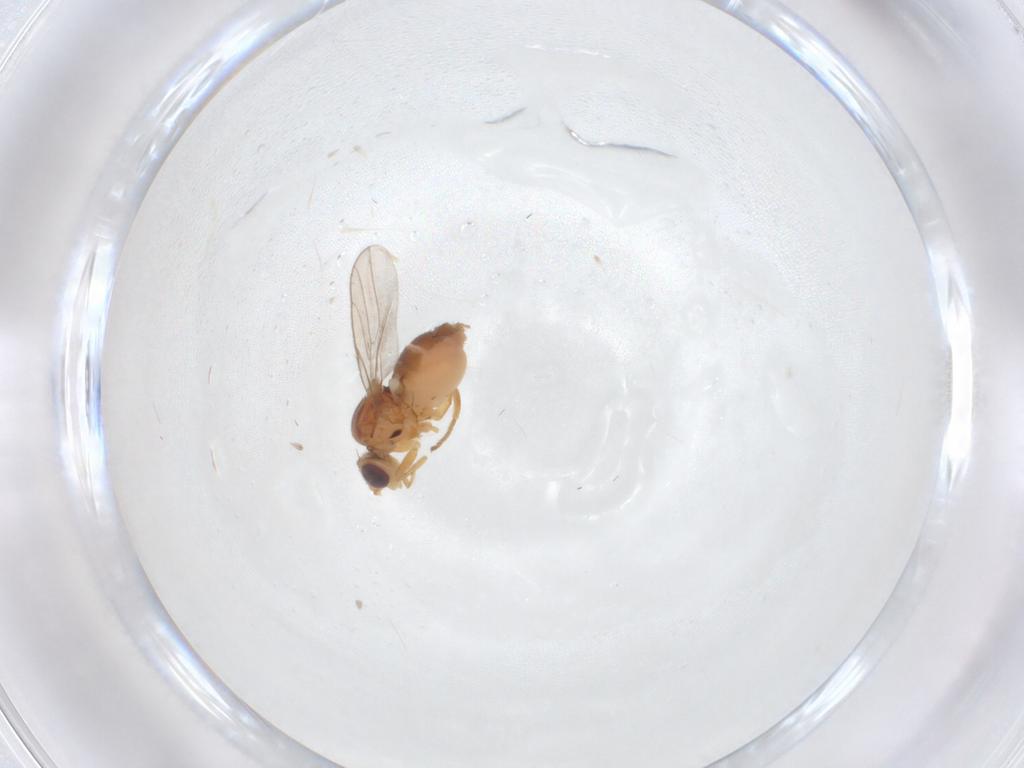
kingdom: Animalia
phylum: Arthropoda
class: Insecta
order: Diptera
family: Chloropidae
